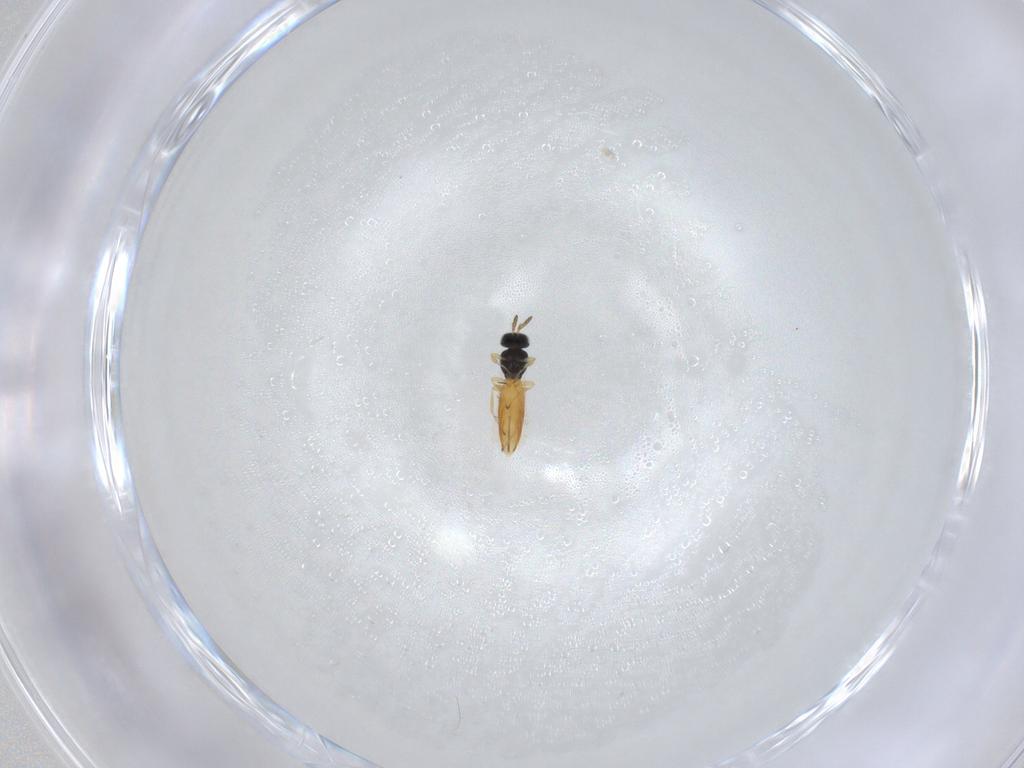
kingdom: Animalia
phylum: Arthropoda
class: Insecta
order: Hymenoptera
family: Scelionidae
